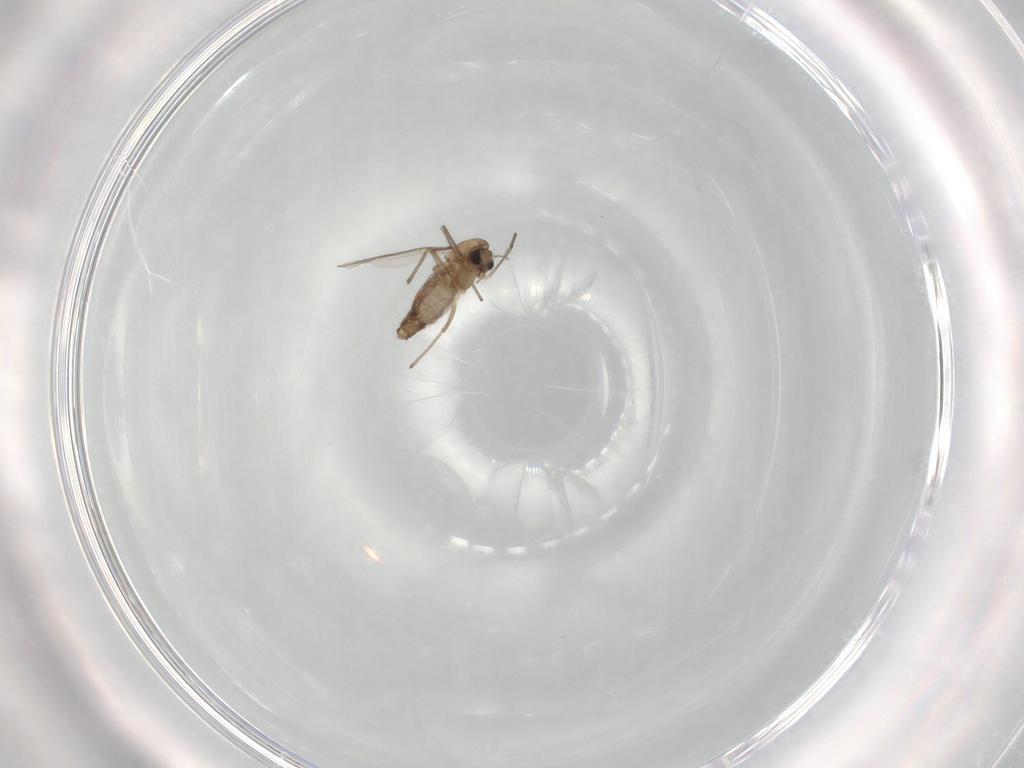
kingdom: Animalia
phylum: Arthropoda
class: Insecta
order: Diptera
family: Chironomidae
